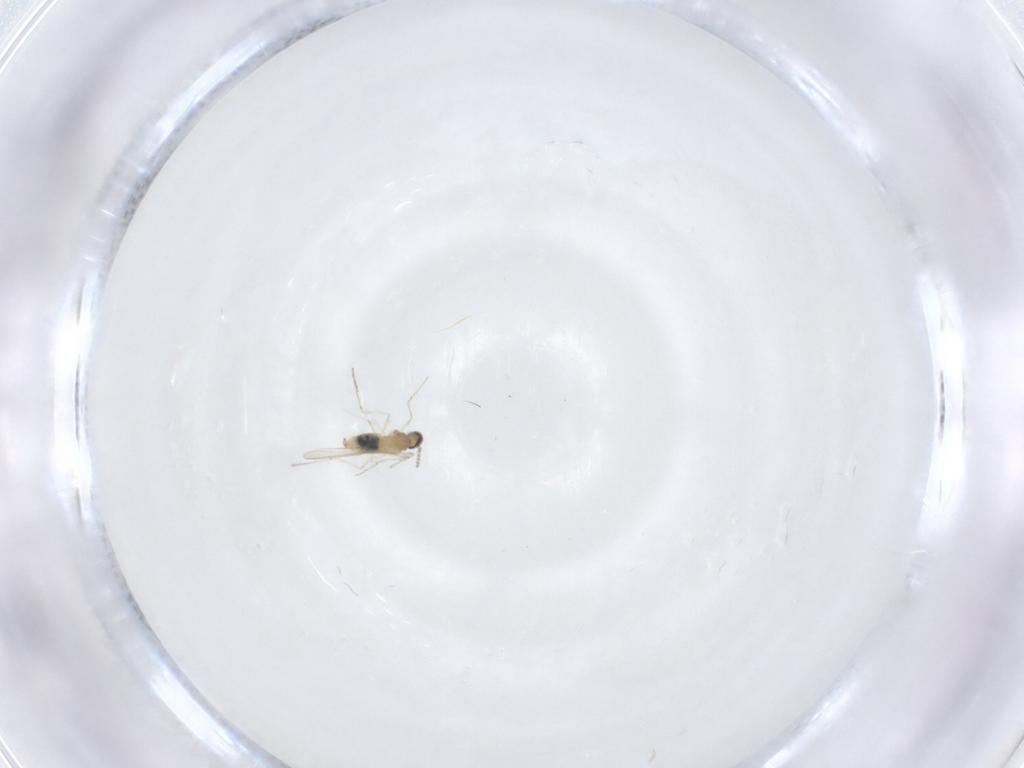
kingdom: Animalia
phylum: Arthropoda
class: Insecta
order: Diptera
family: Cecidomyiidae
